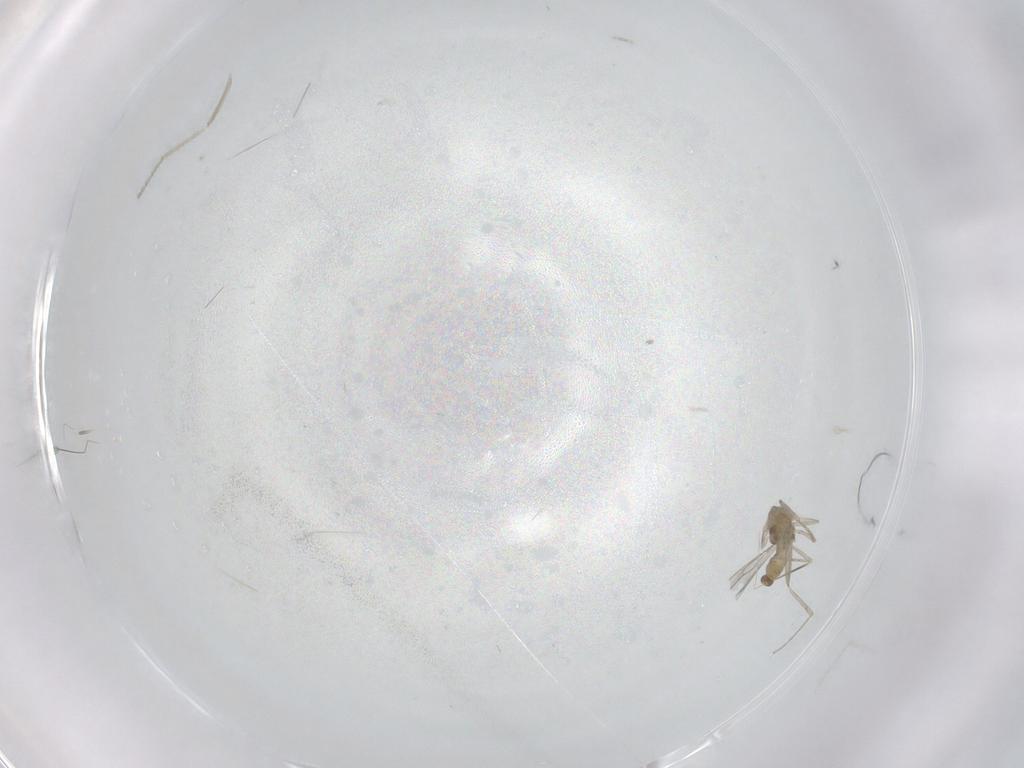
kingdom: Animalia
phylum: Arthropoda
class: Insecta
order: Diptera
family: Cecidomyiidae
